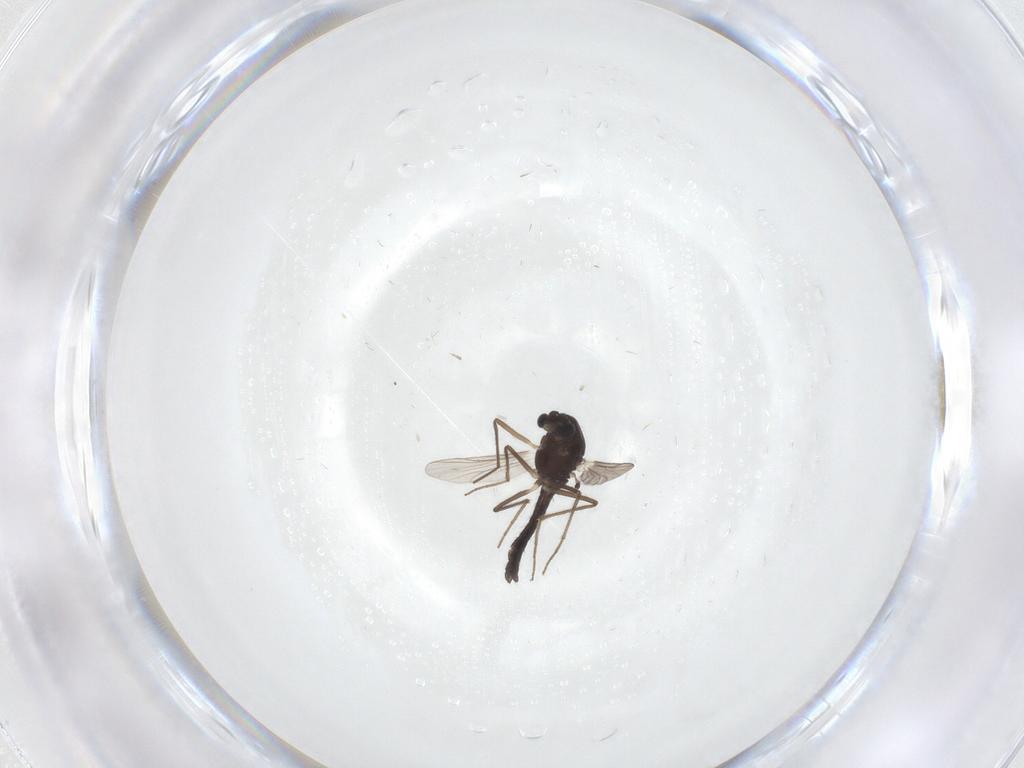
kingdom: Animalia
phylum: Arthropoda
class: Insecta
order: Diptera
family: Chironomidae
